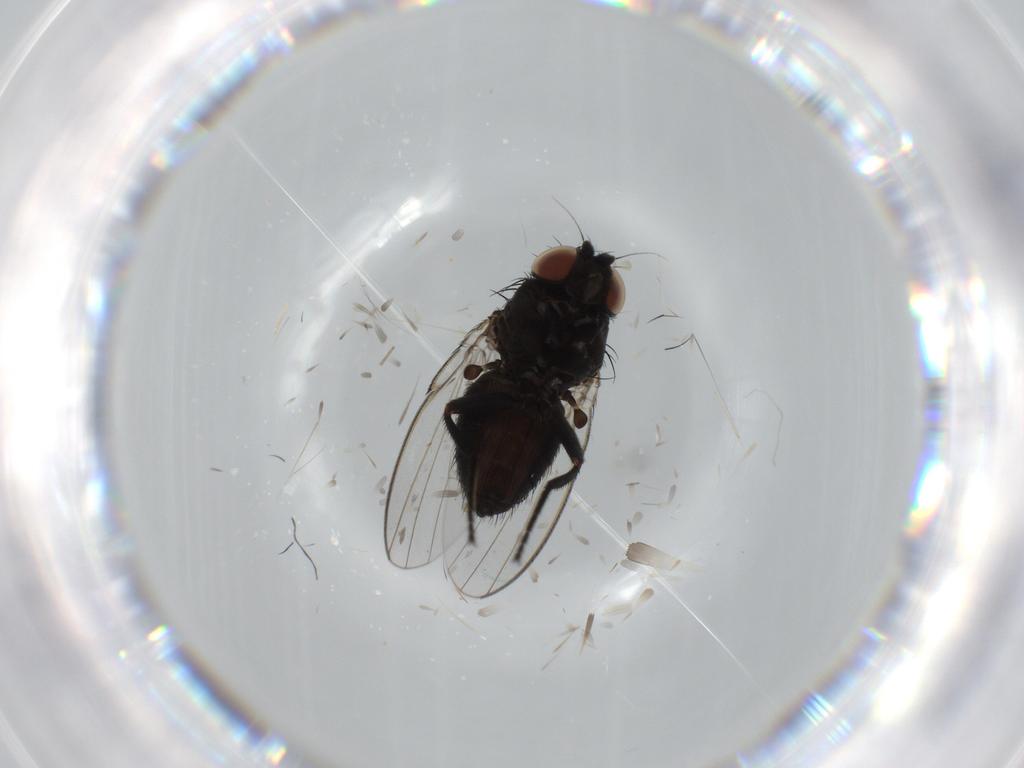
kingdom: Animalia
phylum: Arthropoda
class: Insecta
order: Diptera
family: Milichiidae
